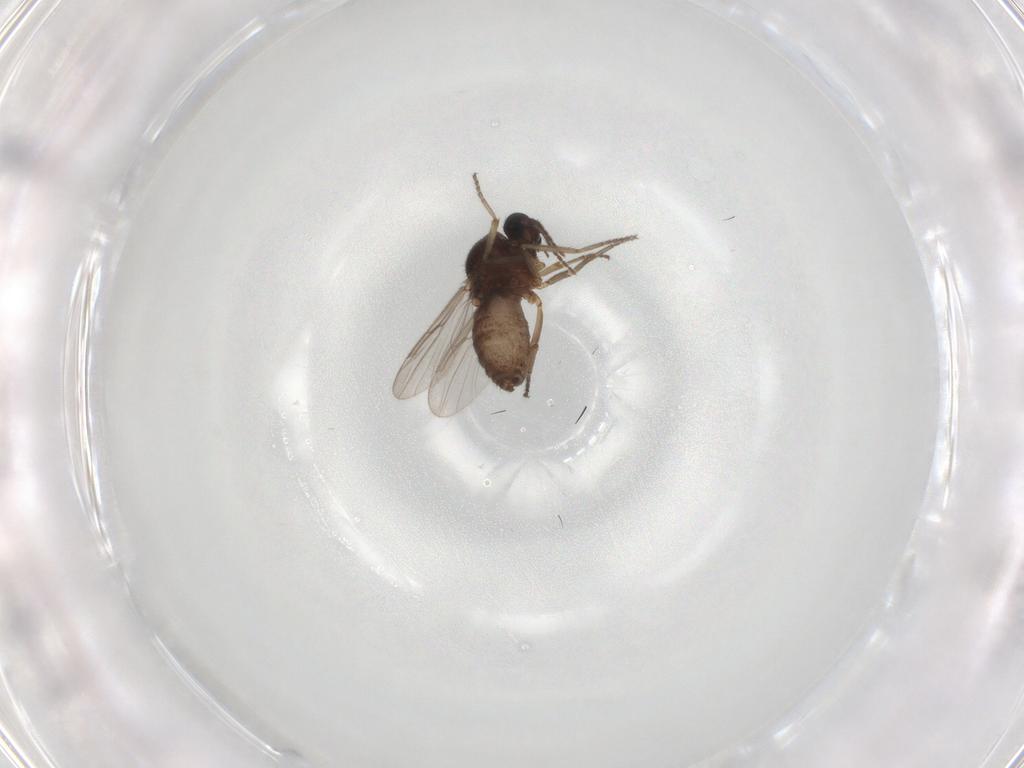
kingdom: Animalia
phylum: Arthropoda
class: Insecta
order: Diptera
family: Ceratopogonidae
